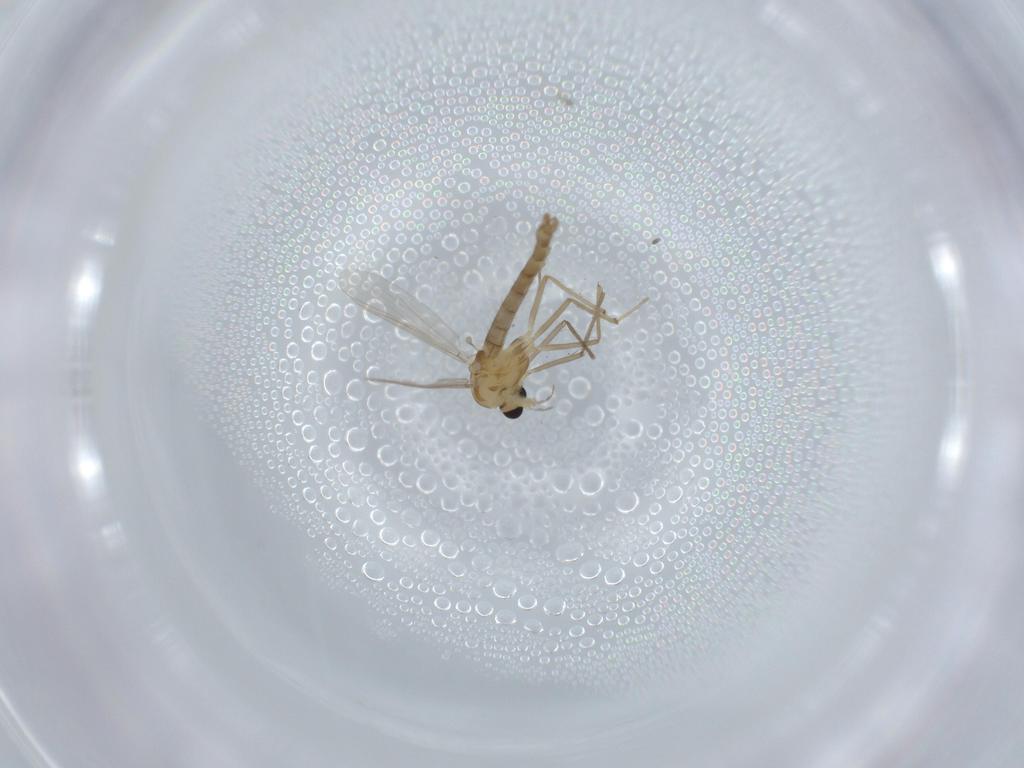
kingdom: Animalia
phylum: Arthropoda
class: Insecta
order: Diptera
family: Chironomidae
